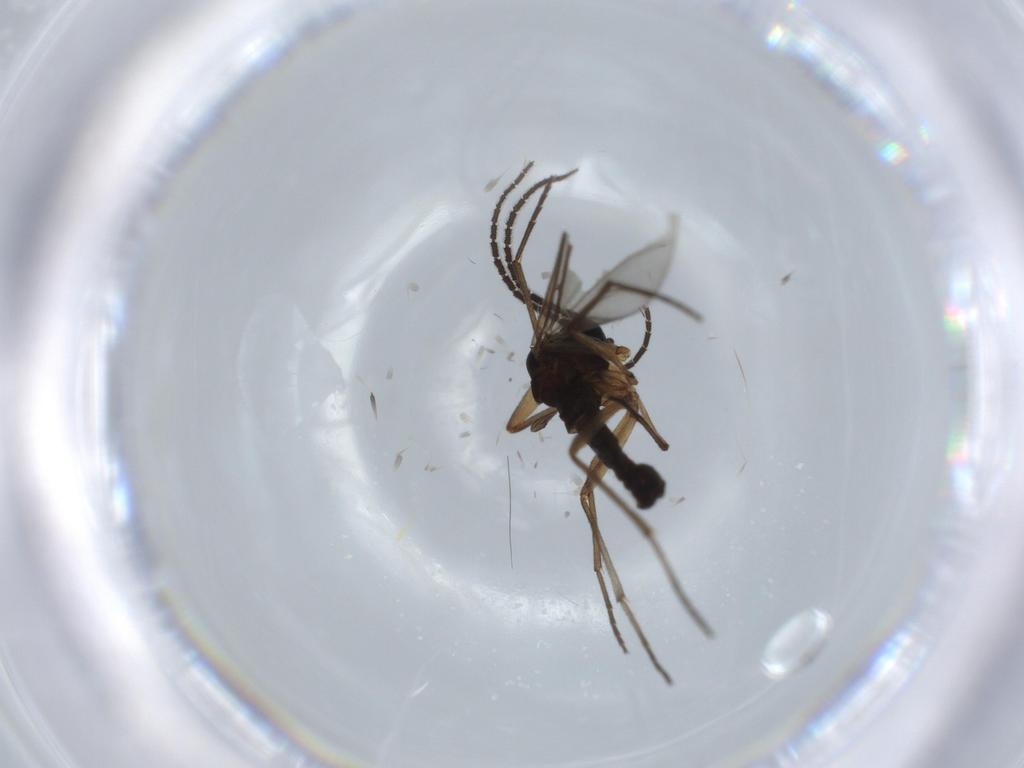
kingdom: Animalia
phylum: Arthropoda
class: Insecta
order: Diptera
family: Sciaridae
